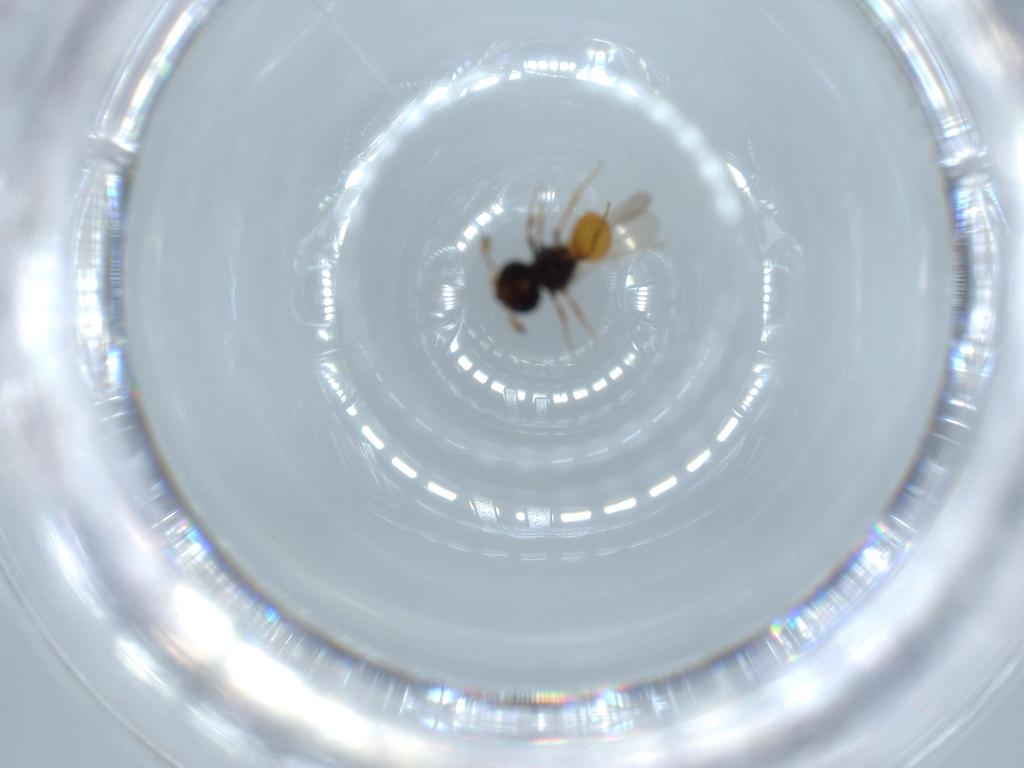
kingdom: Animalia
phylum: Arthropoda
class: Insecta
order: Hymenoptera
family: Scelionidae
